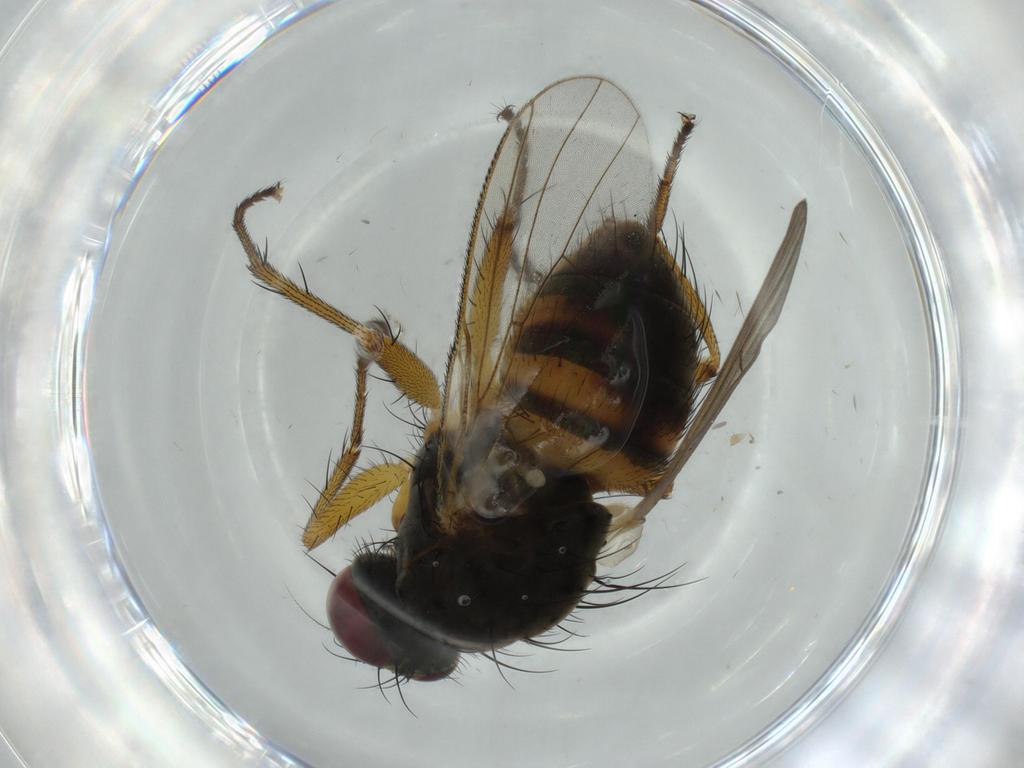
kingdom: Animalia
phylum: Arthropoda
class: Insecta
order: Diptera
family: Muscidae
